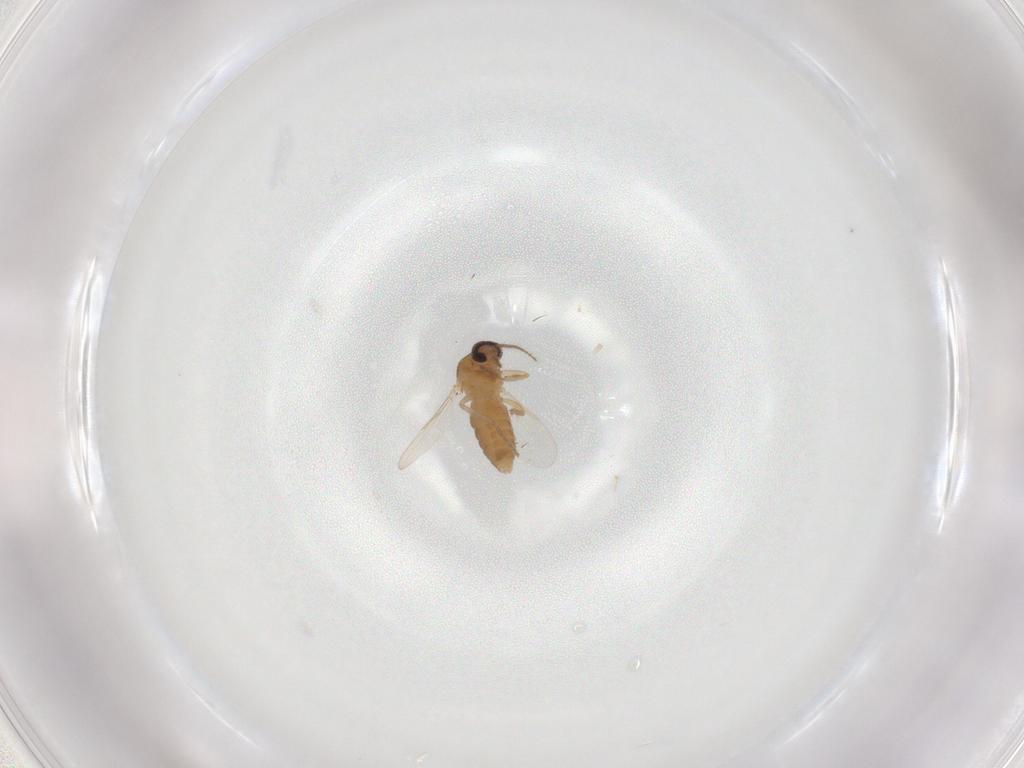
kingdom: Animalia
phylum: Arthropoda
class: Insecta
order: Diptera
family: Ceratopogonidae
